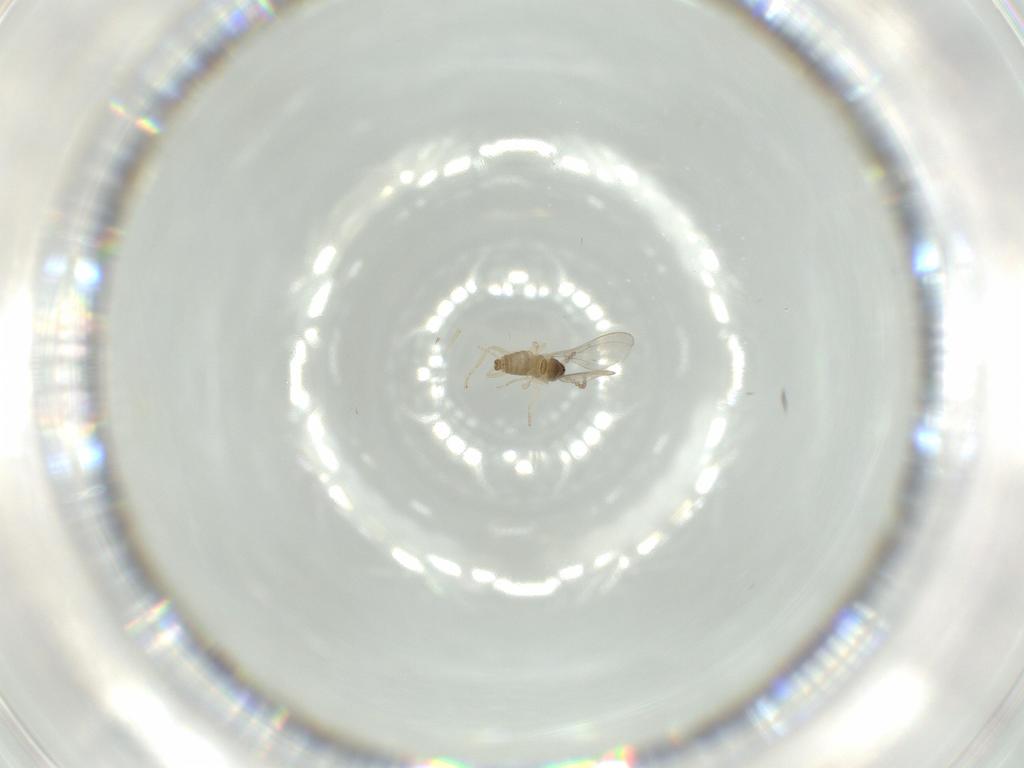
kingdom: Animalia
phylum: Arthropoda
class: Insecta
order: Diptera
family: Cecidomyiidae
